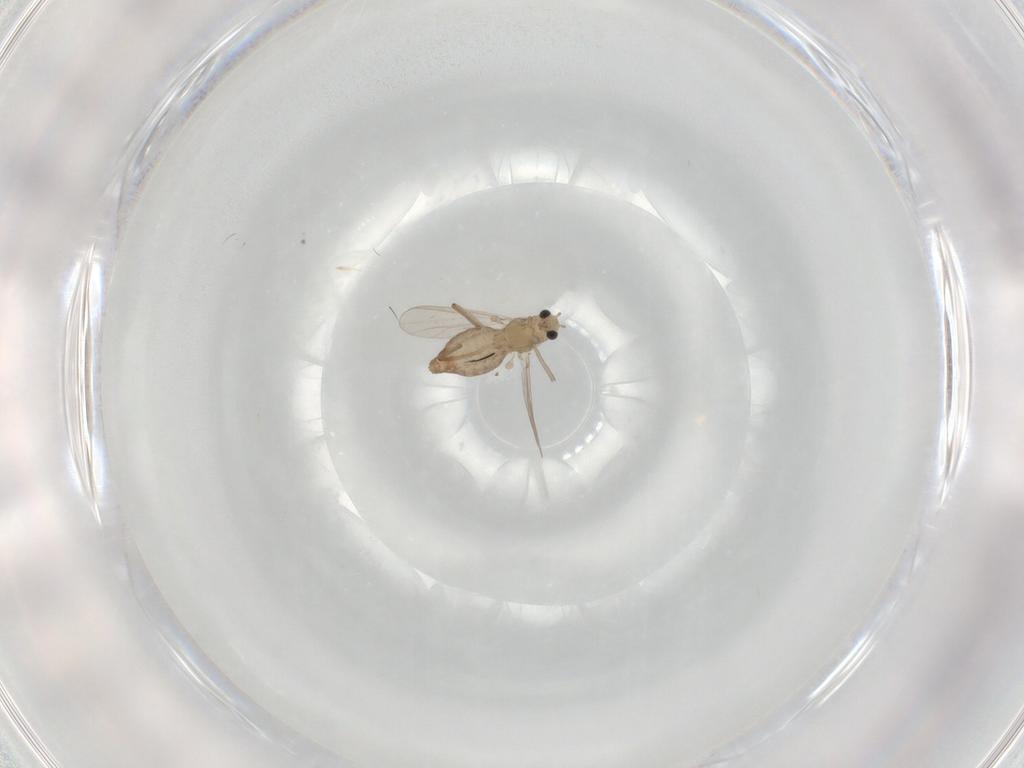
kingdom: Animalia
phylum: Arthropoda
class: Insecta
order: Diptera
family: Chironomidae
